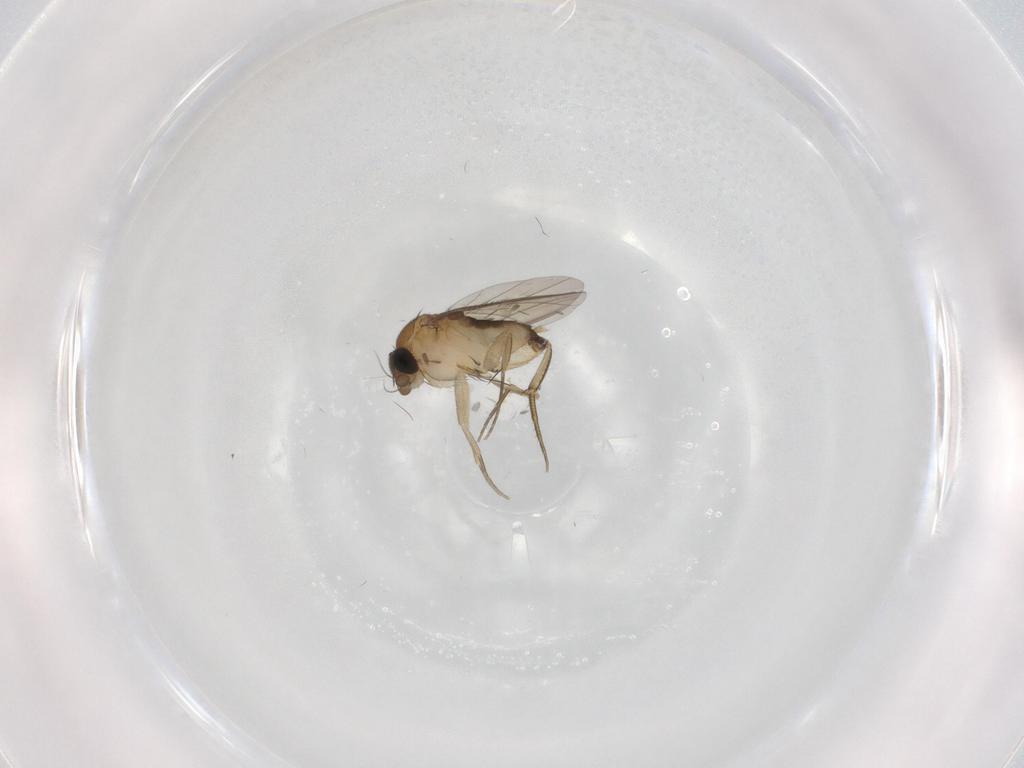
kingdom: Animalia
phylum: Arthropoda
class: Insecta
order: Diptera
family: Phoridae
